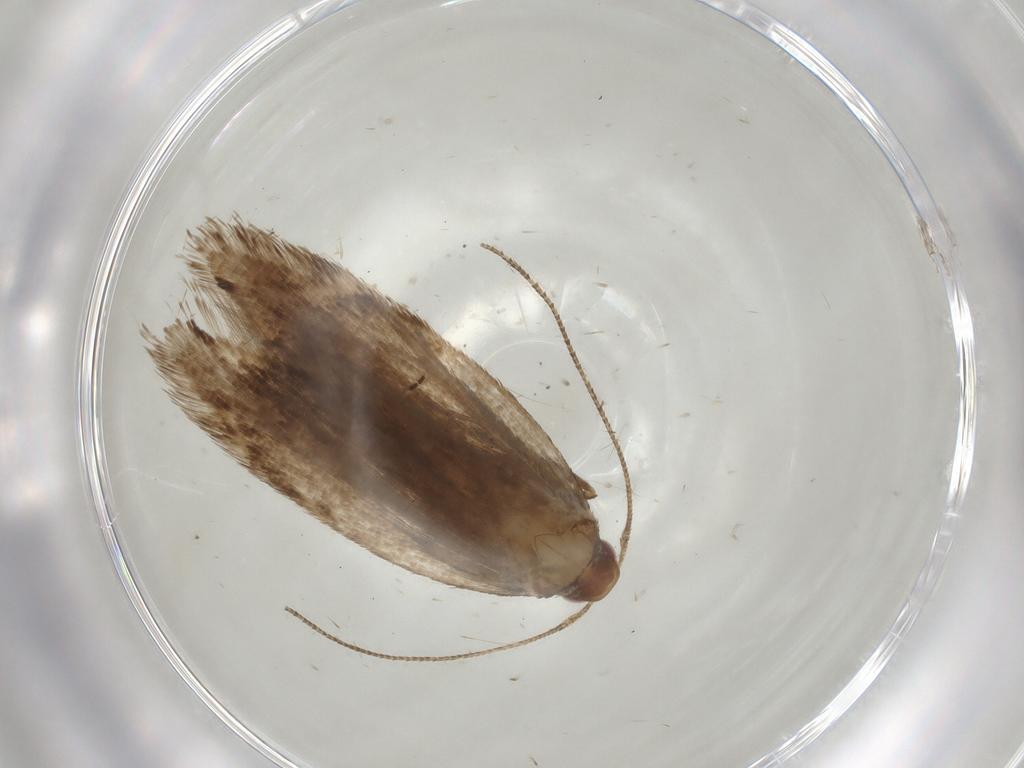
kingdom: Animalia
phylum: Arthropoda
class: Insecta
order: Lepidoptera
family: Gelechiidae
